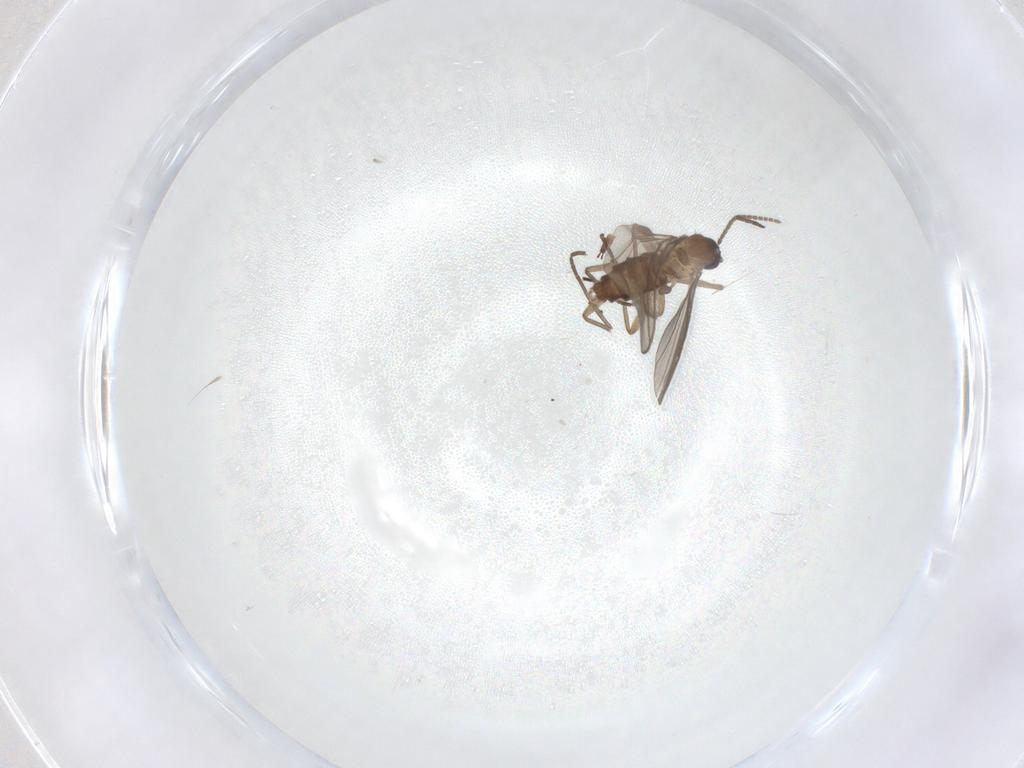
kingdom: Animalia
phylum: Arthropoda
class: Insecta
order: Diptera
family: Sciaridae
